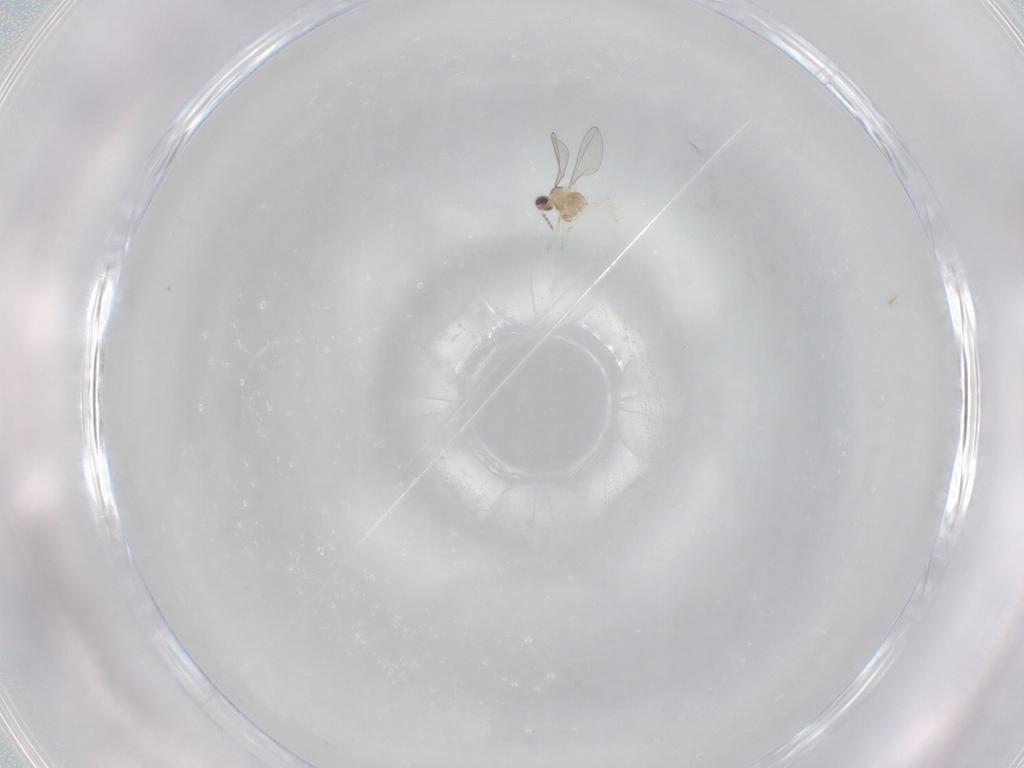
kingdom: Animalia
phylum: Arthropoda
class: Insecta
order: Diptera
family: Cecidomyiidae
